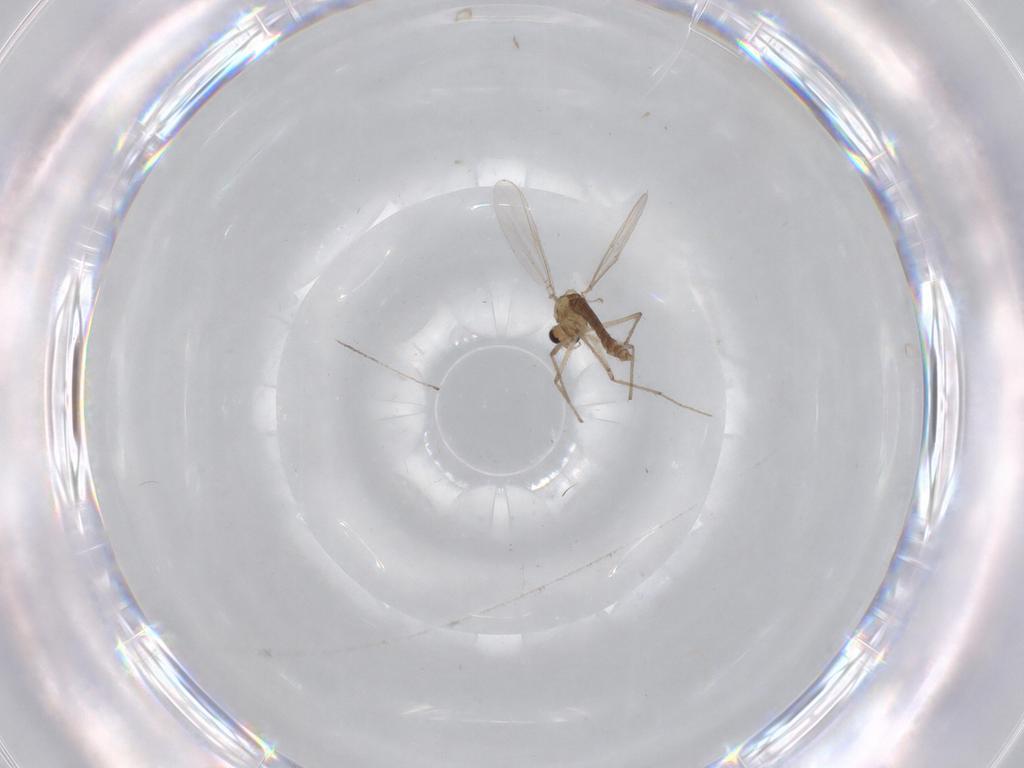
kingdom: Animalia
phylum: Arthropoda
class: Insecta
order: Diptera
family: Chironomidae
